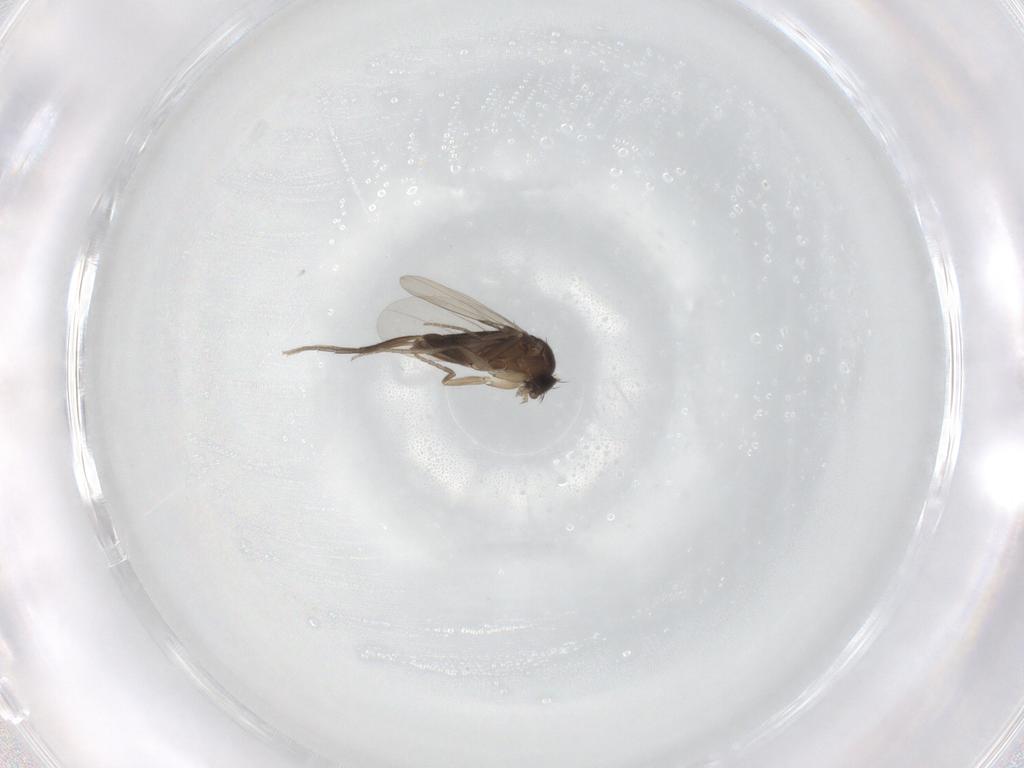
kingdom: Animalia
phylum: Arthropoda
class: Insecta
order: Diptera
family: Phoridae
